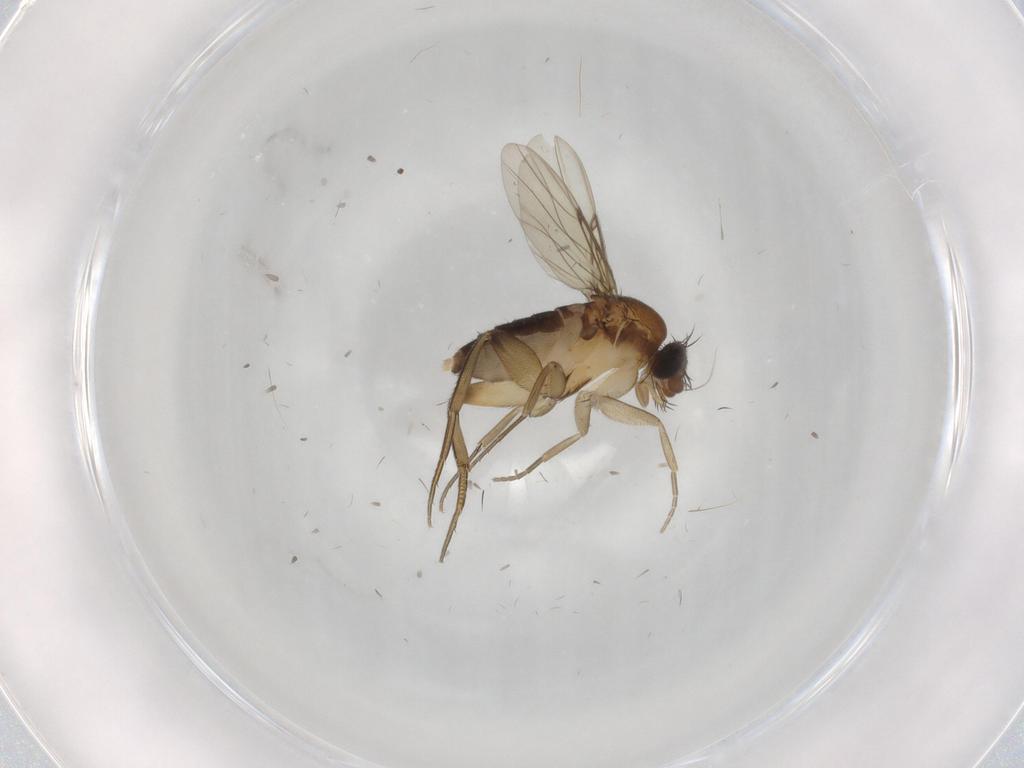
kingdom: Animalia
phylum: Arthropoda
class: Insecta
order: Diptera
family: Phoridae
